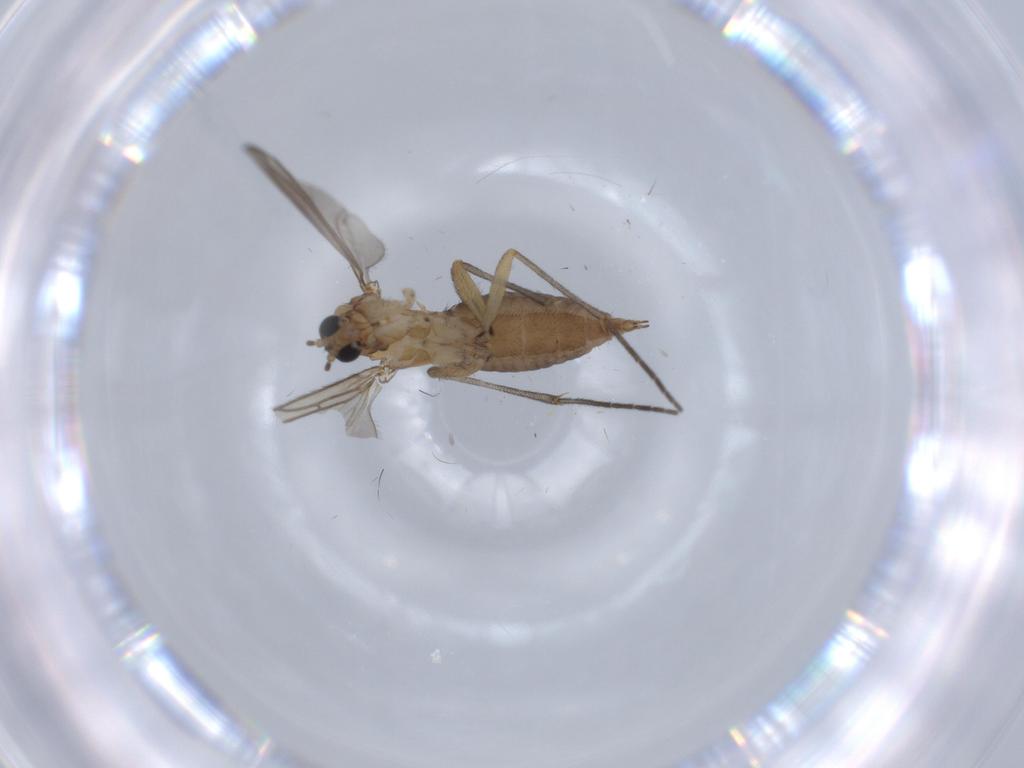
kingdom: Animalia
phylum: Arthropoda
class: Insecta
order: Diptera
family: Sciaridae
